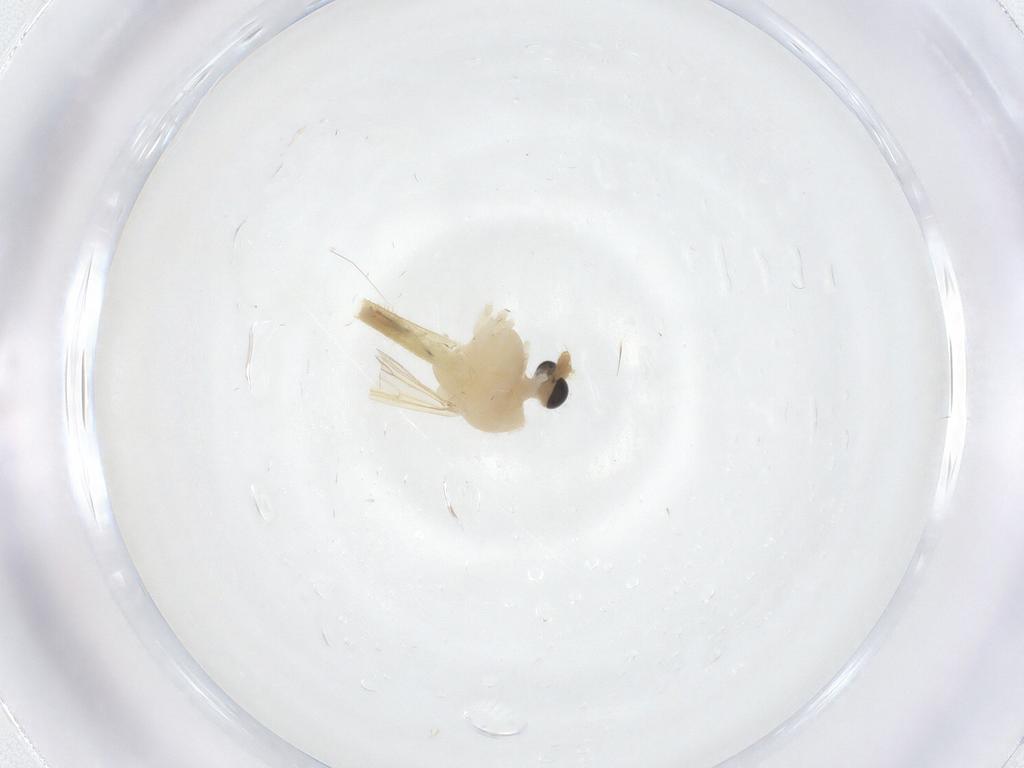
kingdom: Animalia
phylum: Arthropoda
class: Insecta
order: Diptera
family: Chironomidae
